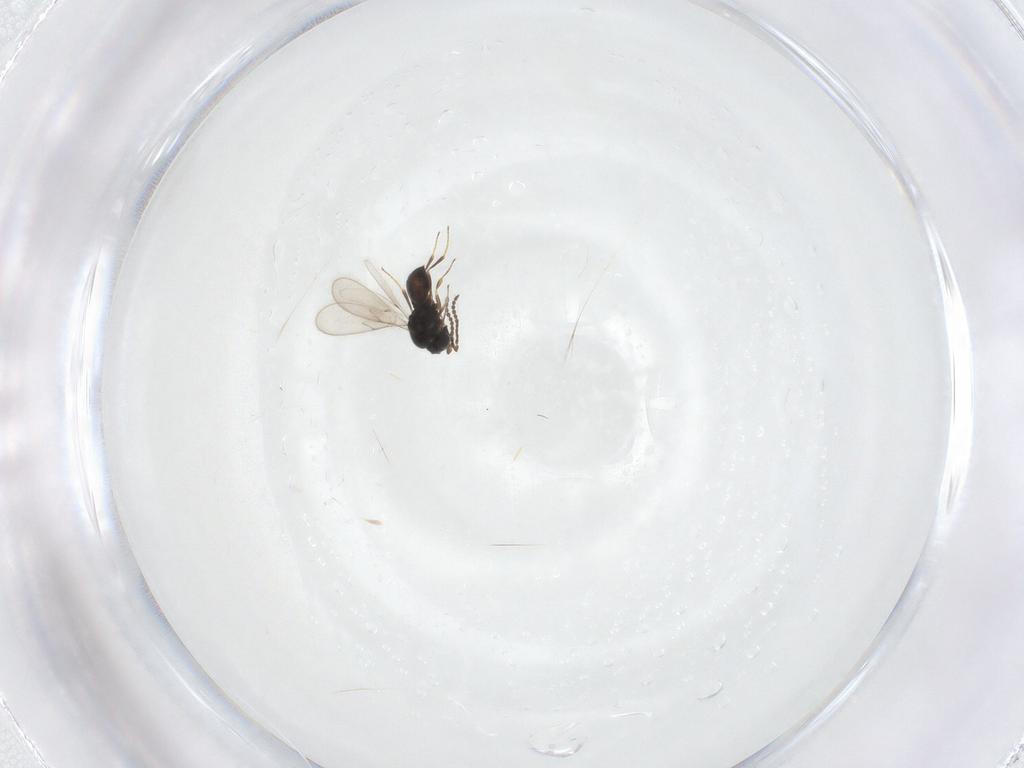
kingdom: Animalia
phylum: Arthropoda
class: Insecta
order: Hymenoptera
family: Scelionidae
